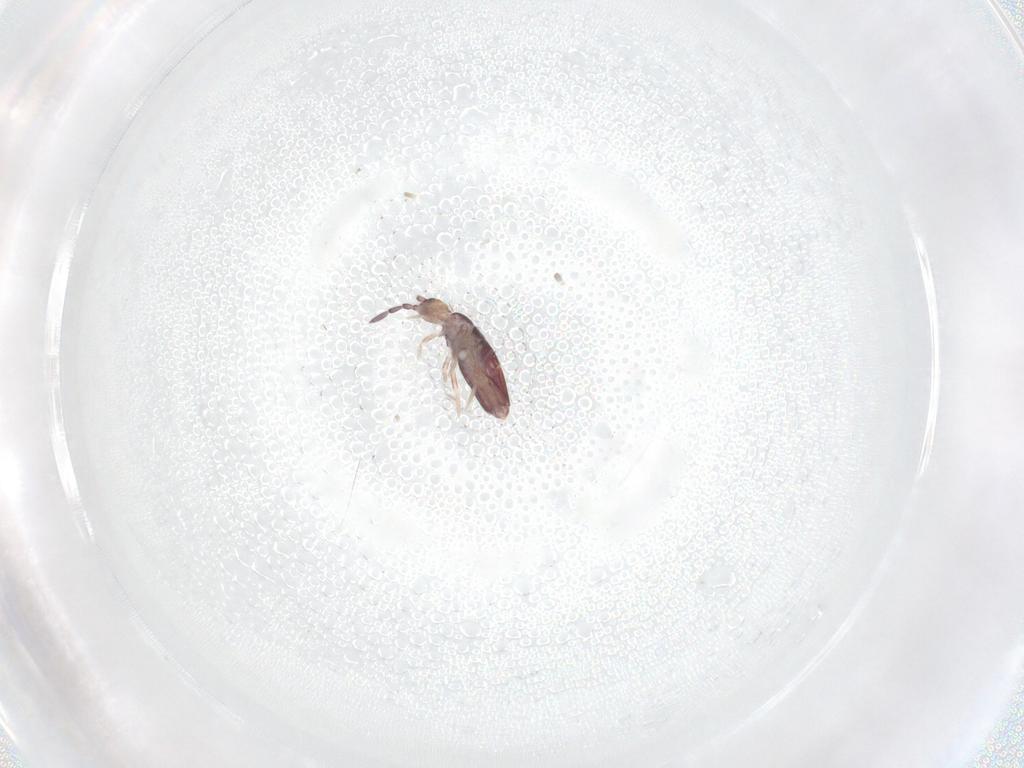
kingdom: Animalia
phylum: Arthropoda
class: Collembola
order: Entomobryomorpha
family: Entomobryidae
